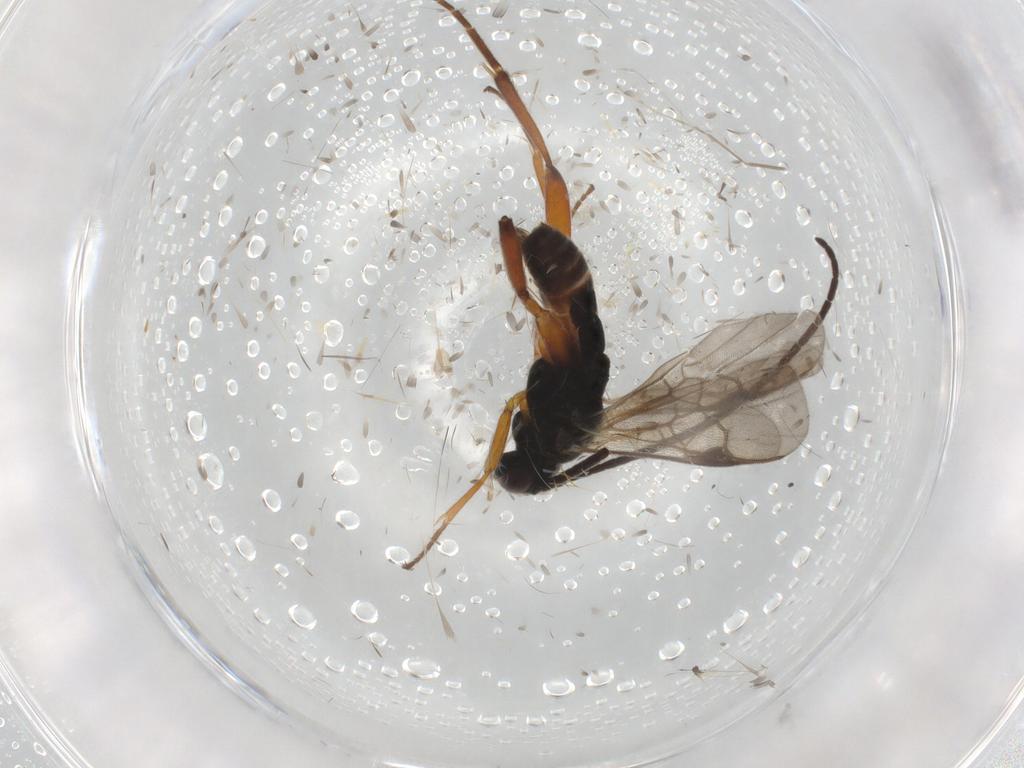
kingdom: Animalia
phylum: Arthropoda
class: Insecta
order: Hymenoptera
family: Braconidae
